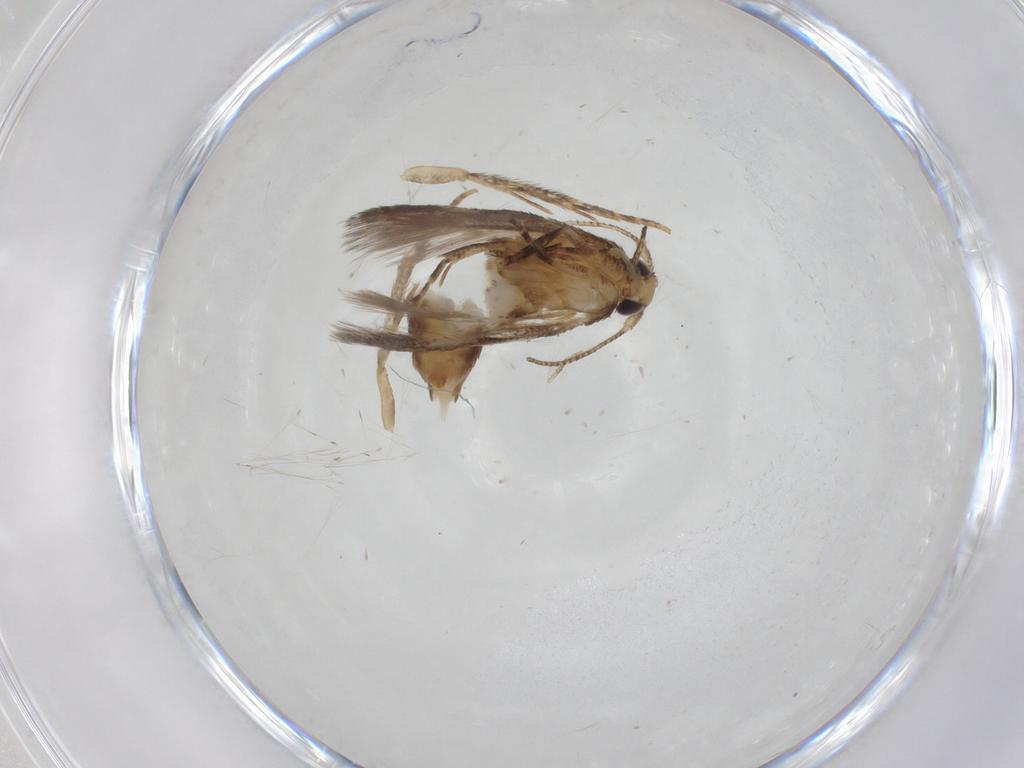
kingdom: Animalia
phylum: Arthropoda
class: Insecta
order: Lepidoptera
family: Crambidae
